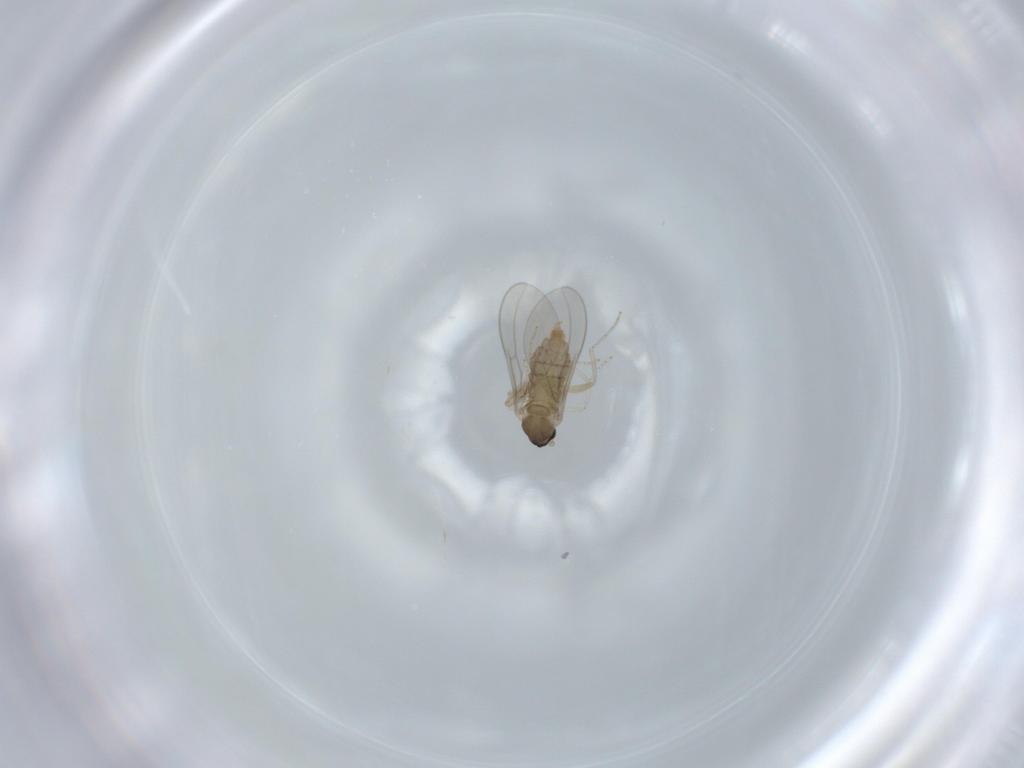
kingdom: Animalia
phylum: Arthropoda
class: Insecta
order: Diptera
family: Cecidomyiidae
